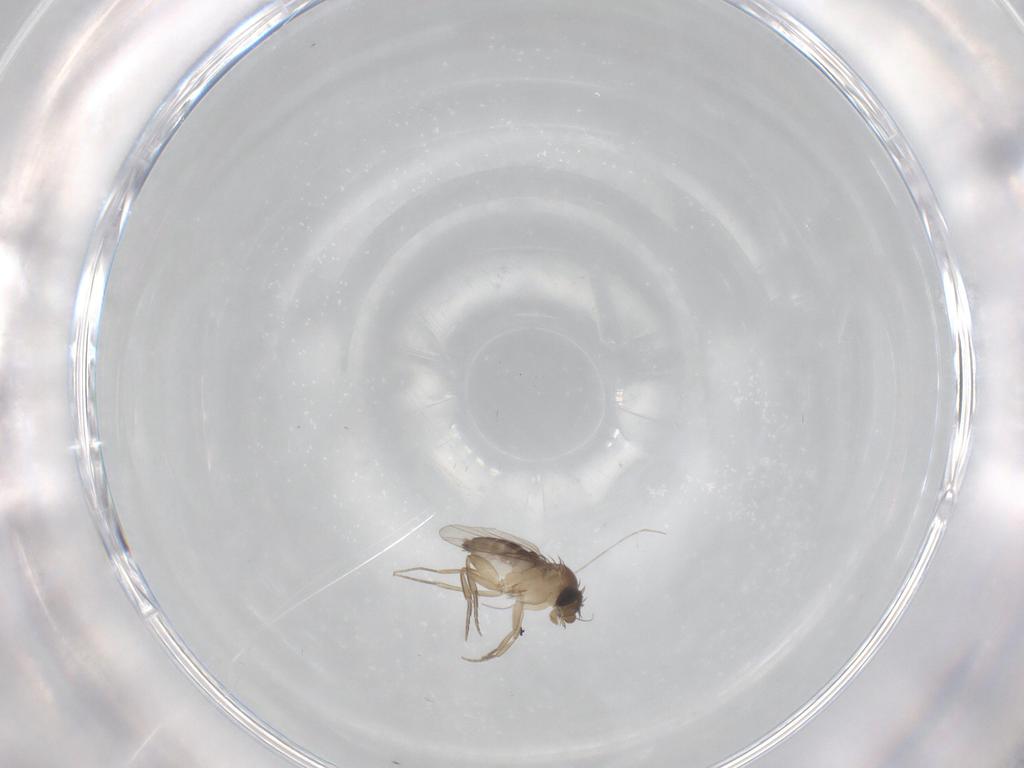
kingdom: Animalia
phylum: Arthropoda
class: Insecta
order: Diptera
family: Sciaridae
